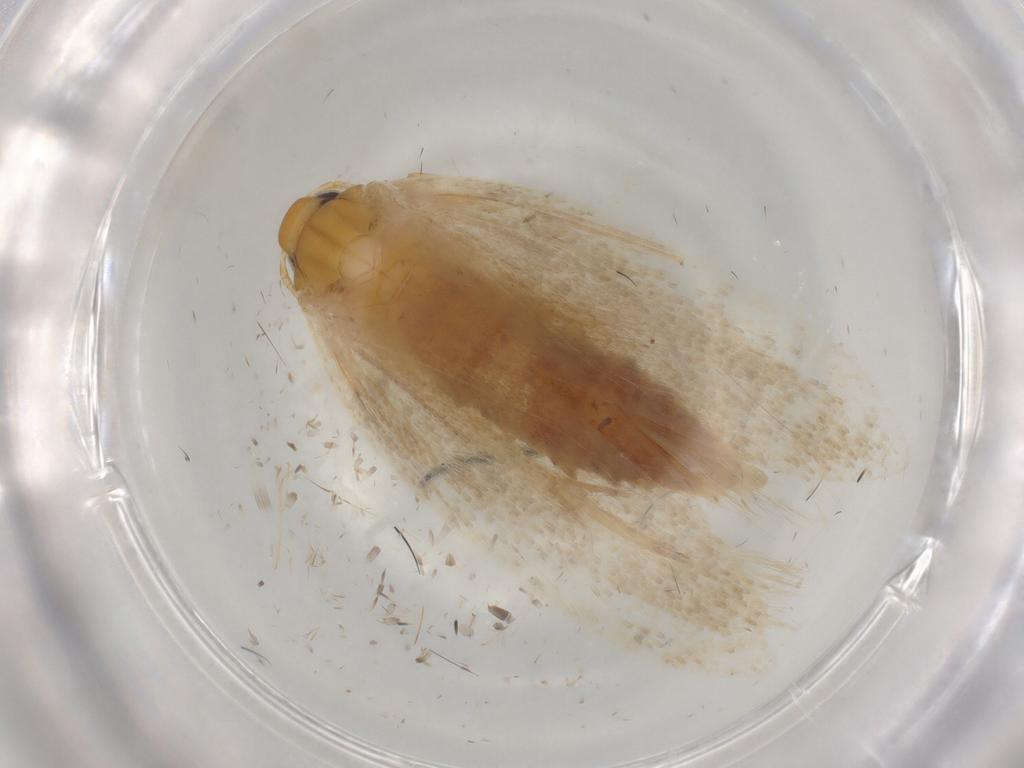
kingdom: Animalia
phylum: Arthropoda
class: Insecta
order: Lepidoptera
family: Gelechiidae
